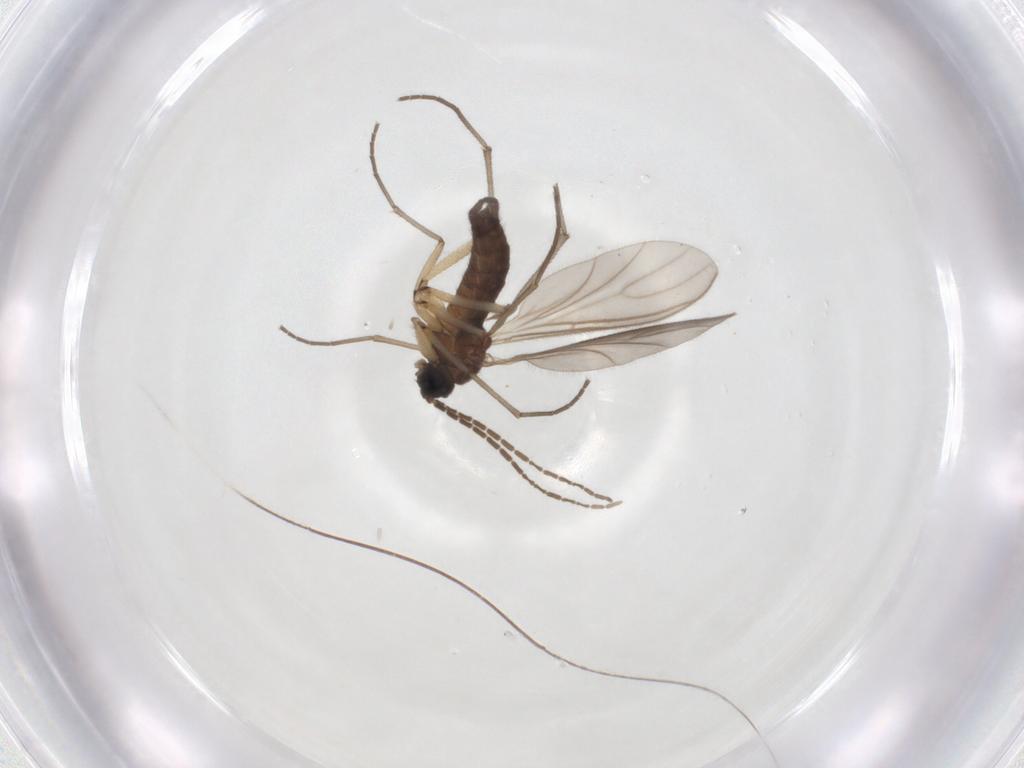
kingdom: Animalia
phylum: Arthropoda
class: Insecta
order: Diptera
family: Sciaridae
